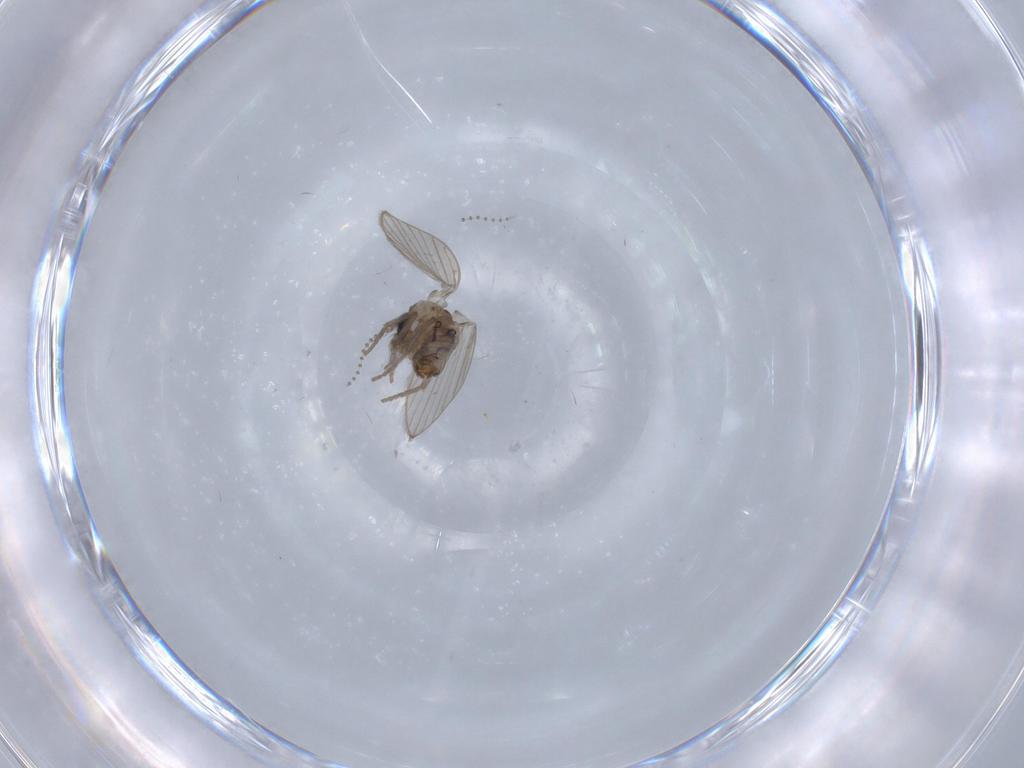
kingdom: Animalia
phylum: Arthropoda
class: Insecta
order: Diptera
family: Psychodidae
